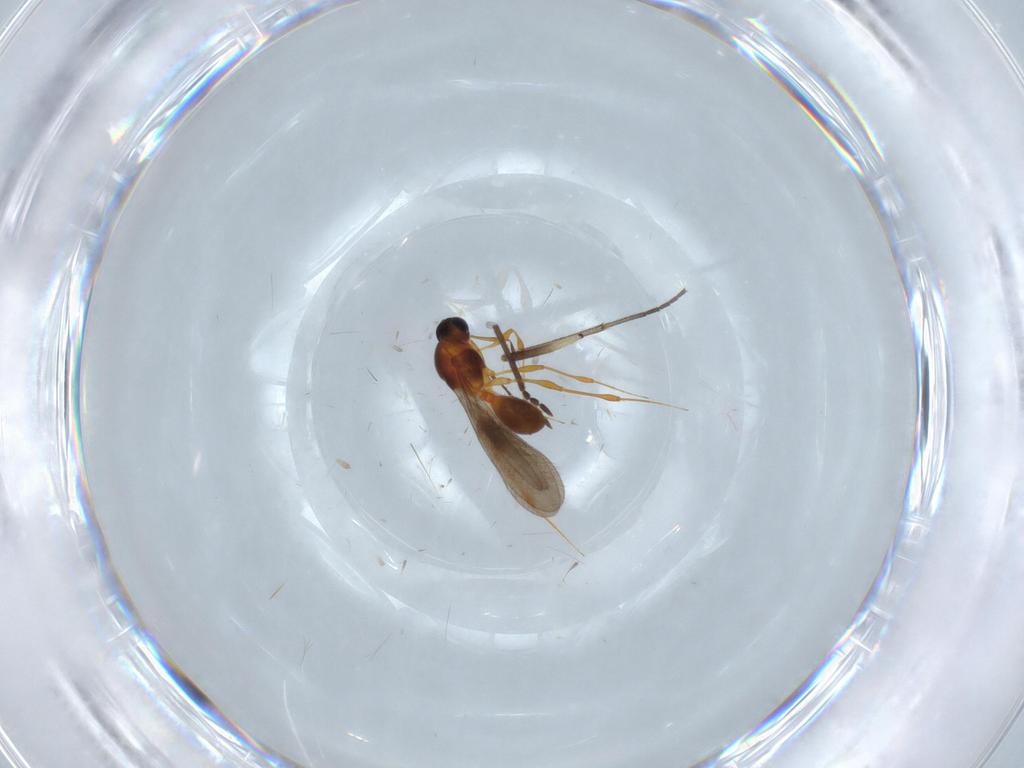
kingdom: Animalia
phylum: Arthropoda
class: Insecta
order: Hymenoptera
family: Platygastridae
